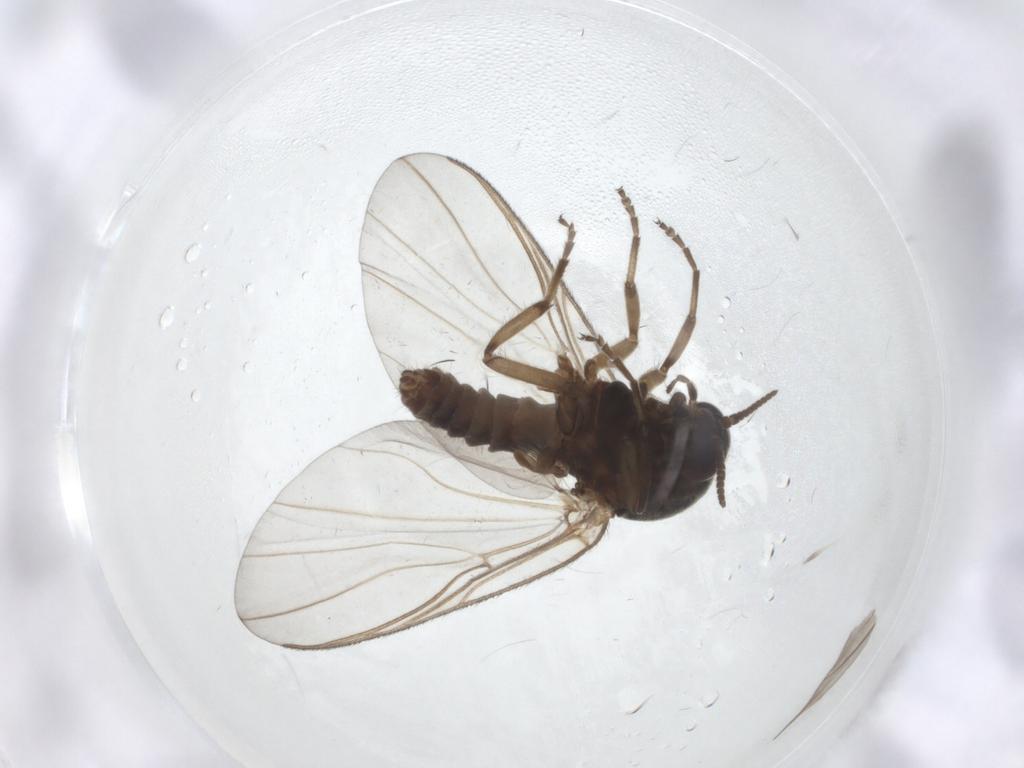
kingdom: Animalia
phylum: Arthropoda
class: Insecta
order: Diptera
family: Simuliidae
